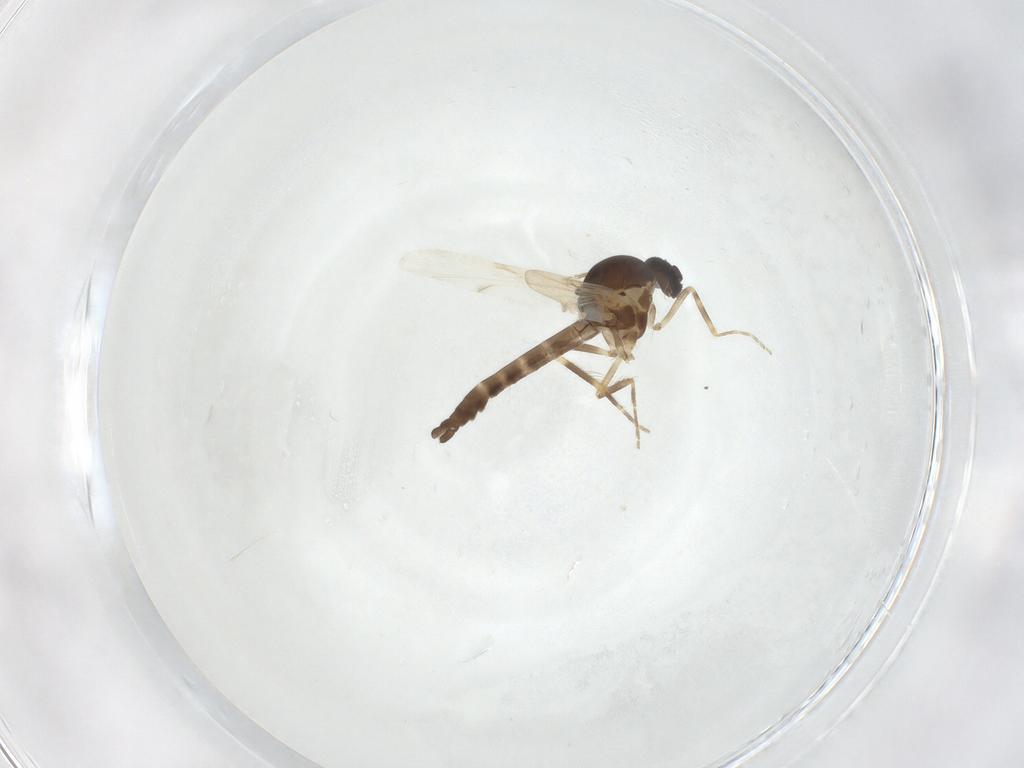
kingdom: Animalia
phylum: Arthropoda
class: Insecta
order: Diptera
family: Ceratopogonidae
